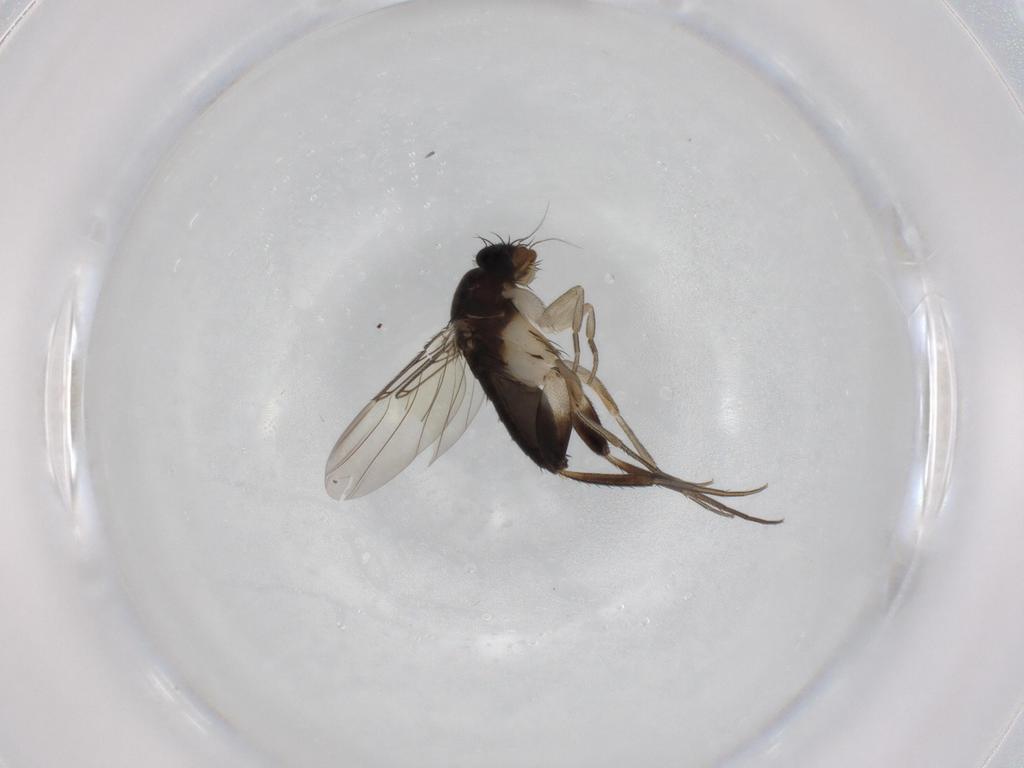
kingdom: Animalia
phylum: Arthropoda
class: Insecta
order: Diptera
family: Phoridae
